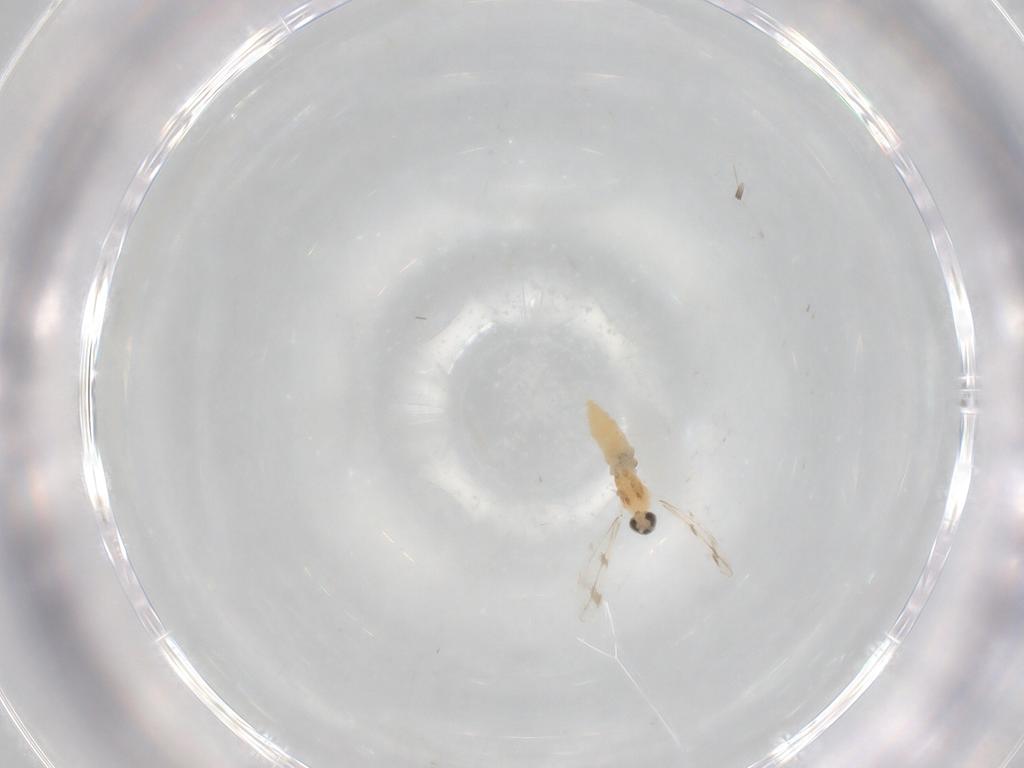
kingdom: Animalia
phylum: Arthropoda
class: Insecta
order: Diptera
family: Cecidomyiidae
